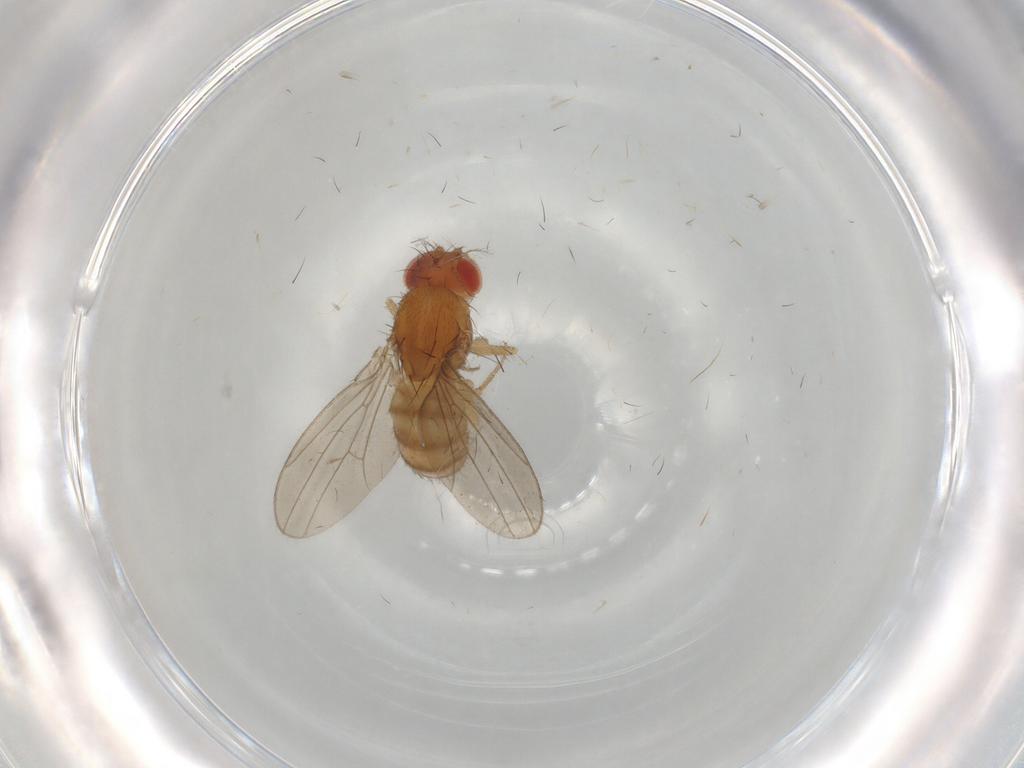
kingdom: Animalia
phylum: Arthropoda
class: Insecta
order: Diptera
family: Drosophilidae
